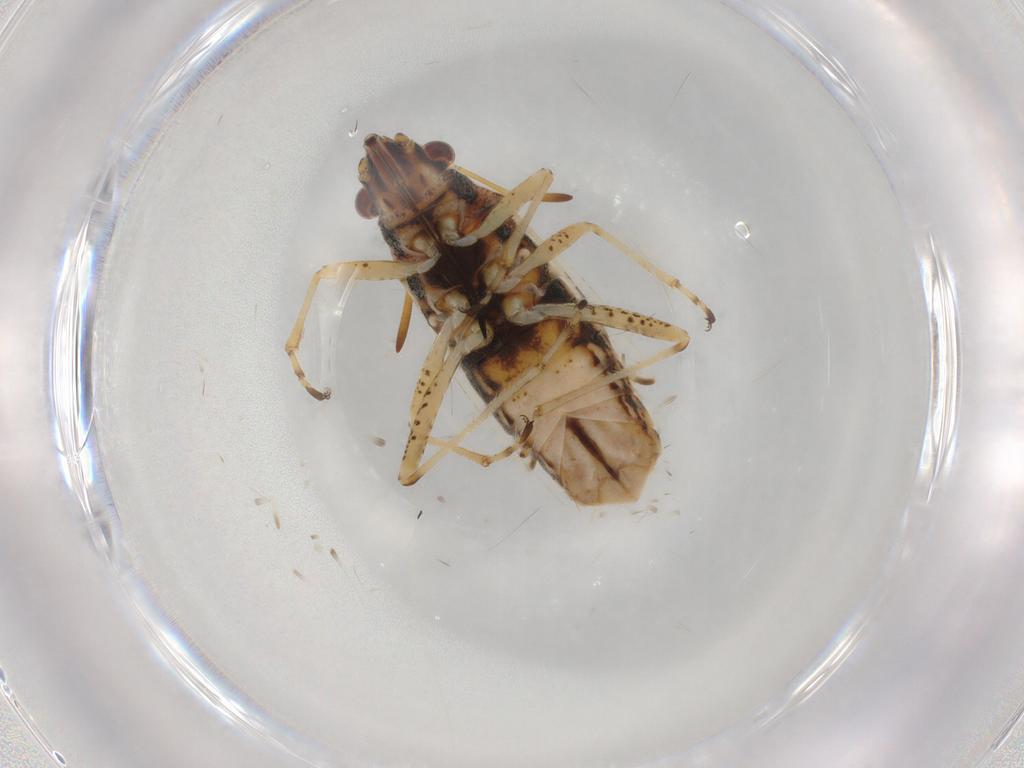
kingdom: Animalia
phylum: Arthropoda
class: Insecta
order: Hemiptera
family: Lygaeidae
